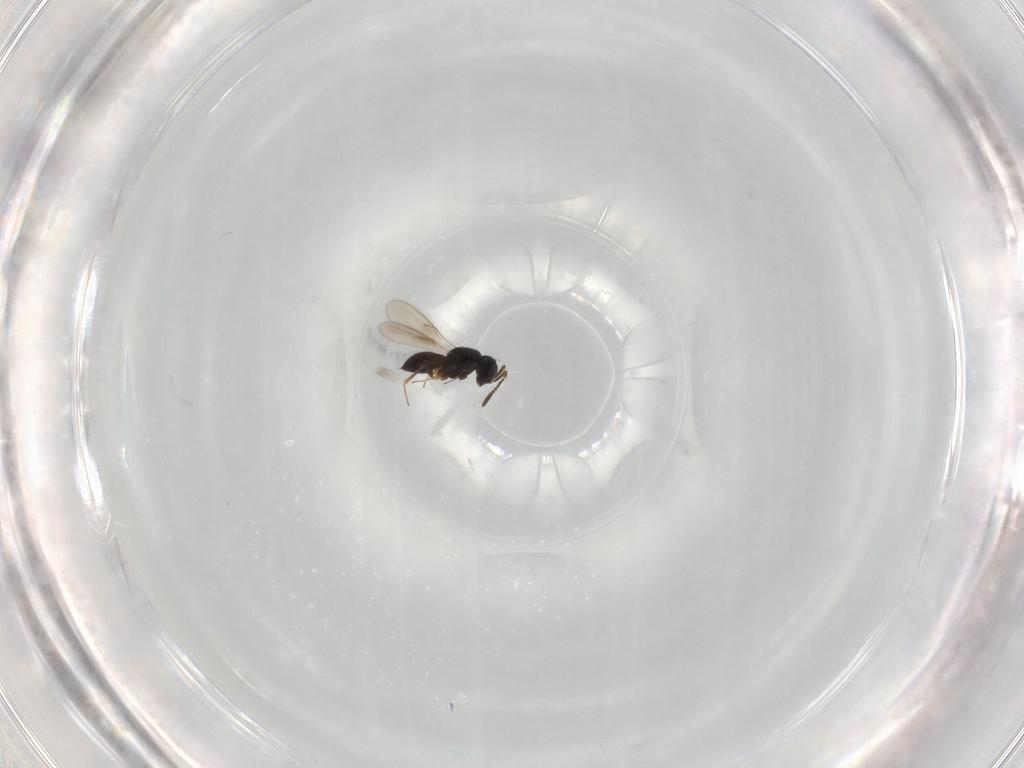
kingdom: Animalia
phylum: Arthropoda
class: Insecta
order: Hymenoptera
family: Scelionidae
